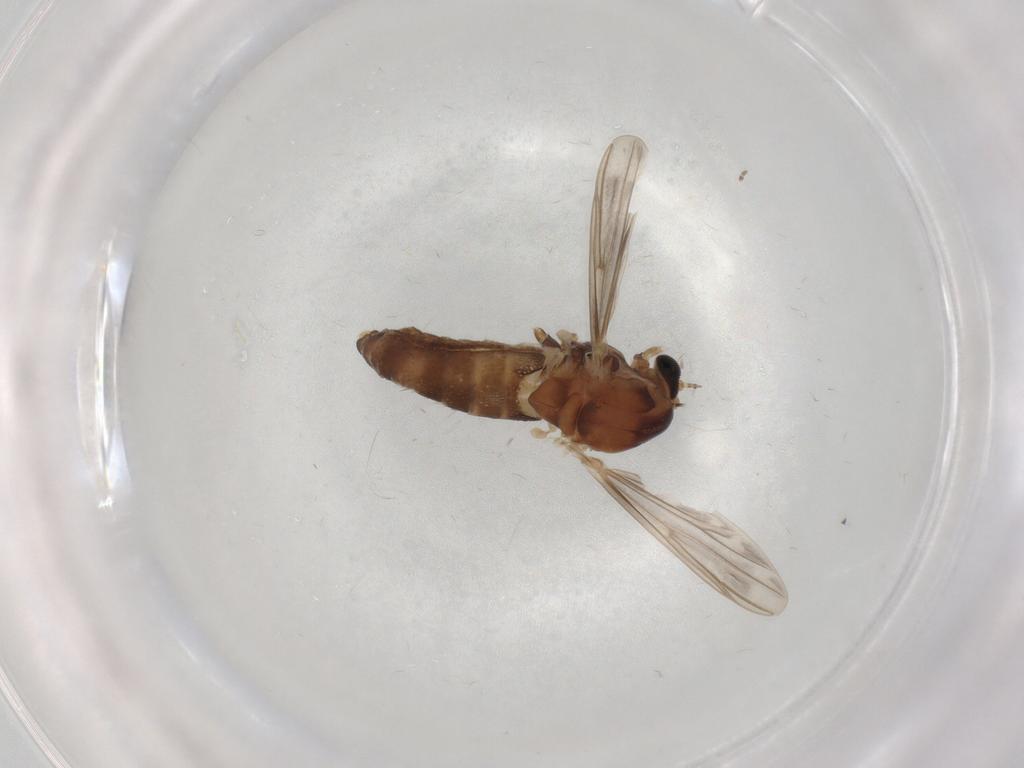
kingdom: Animalia
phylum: Arthropoda
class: Insecta
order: Diptera
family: Chironomidae
